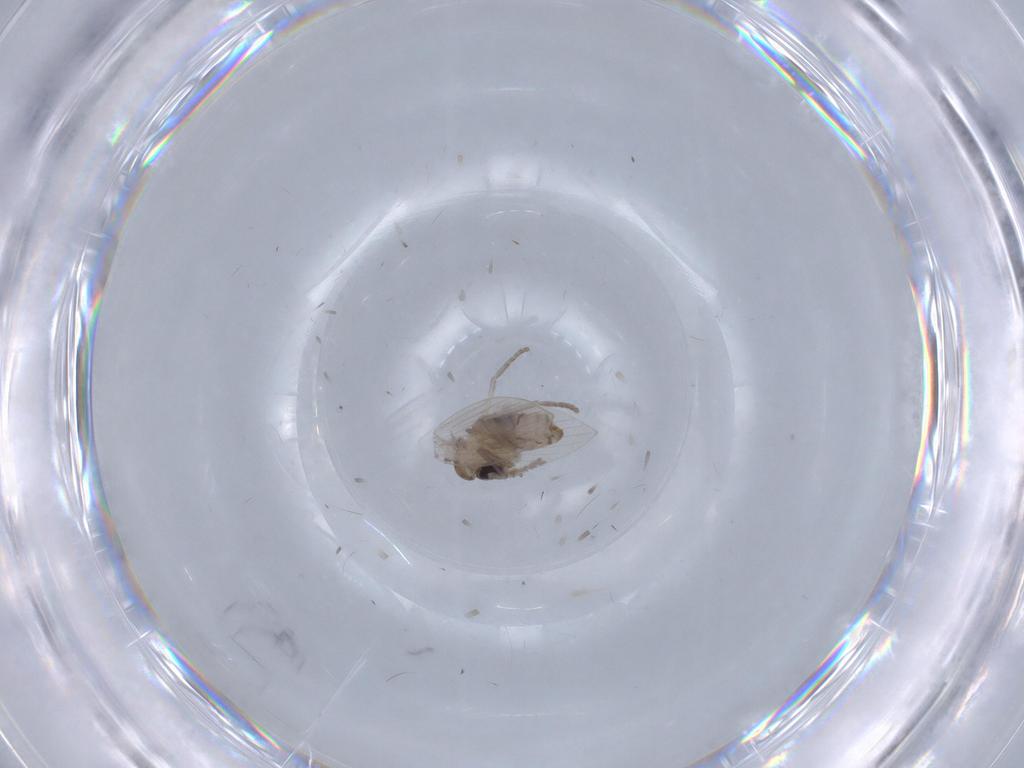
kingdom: Animalia
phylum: Arthropoda
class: Insecta
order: Diptera
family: Psychodidae
